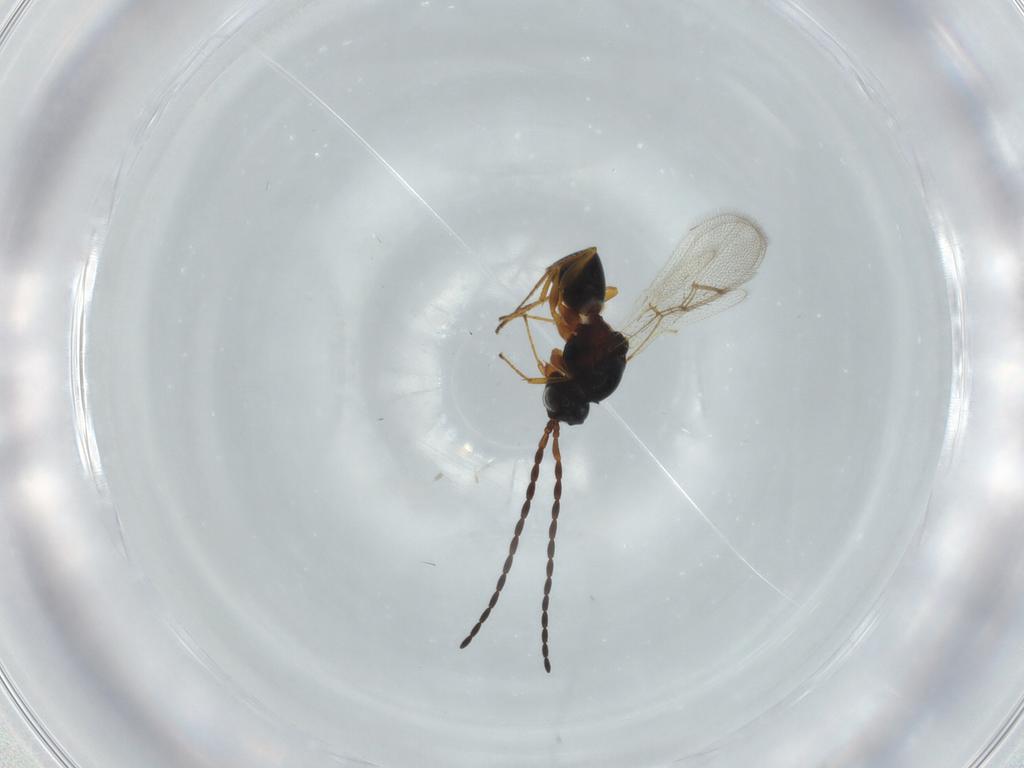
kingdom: Animalia
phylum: Arthropoda
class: Insecta
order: Hymenoptera
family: Figitidae
